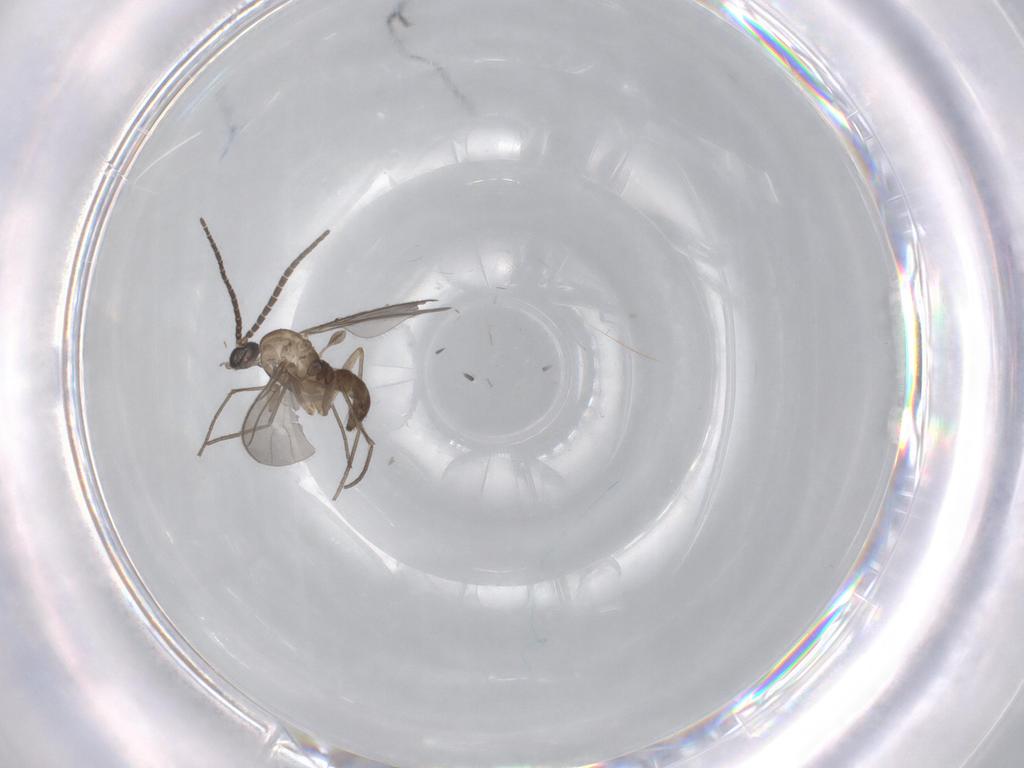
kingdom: Animalia
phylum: Arthropoda
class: Insecta
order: Diptera
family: Sciaridae
